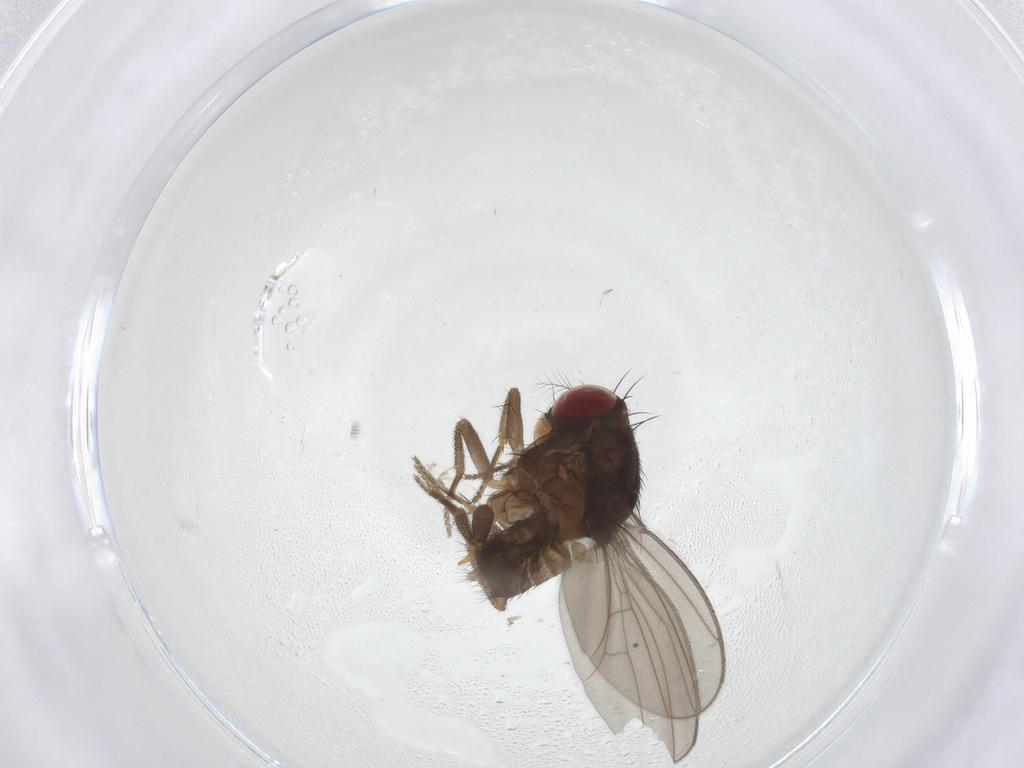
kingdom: Animalia
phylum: Arthropoda
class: Insecta
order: Diptera
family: Drosophilidae
